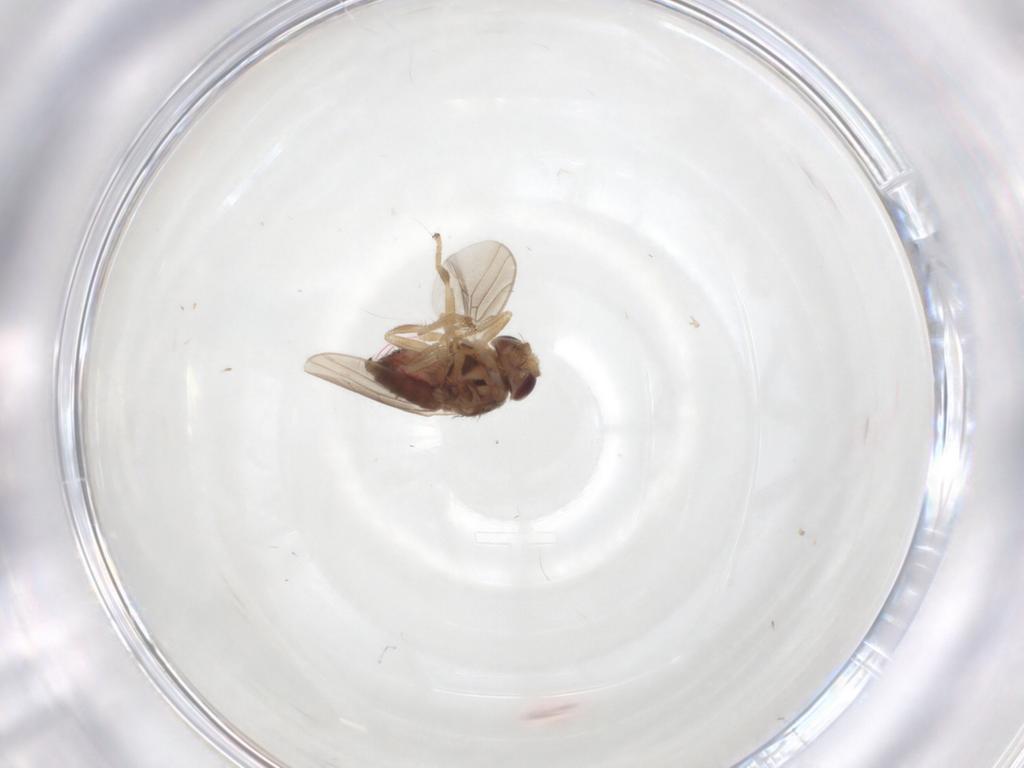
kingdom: Animalia
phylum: Arthropoda
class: Insecta
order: Diptera
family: Chloropidae
